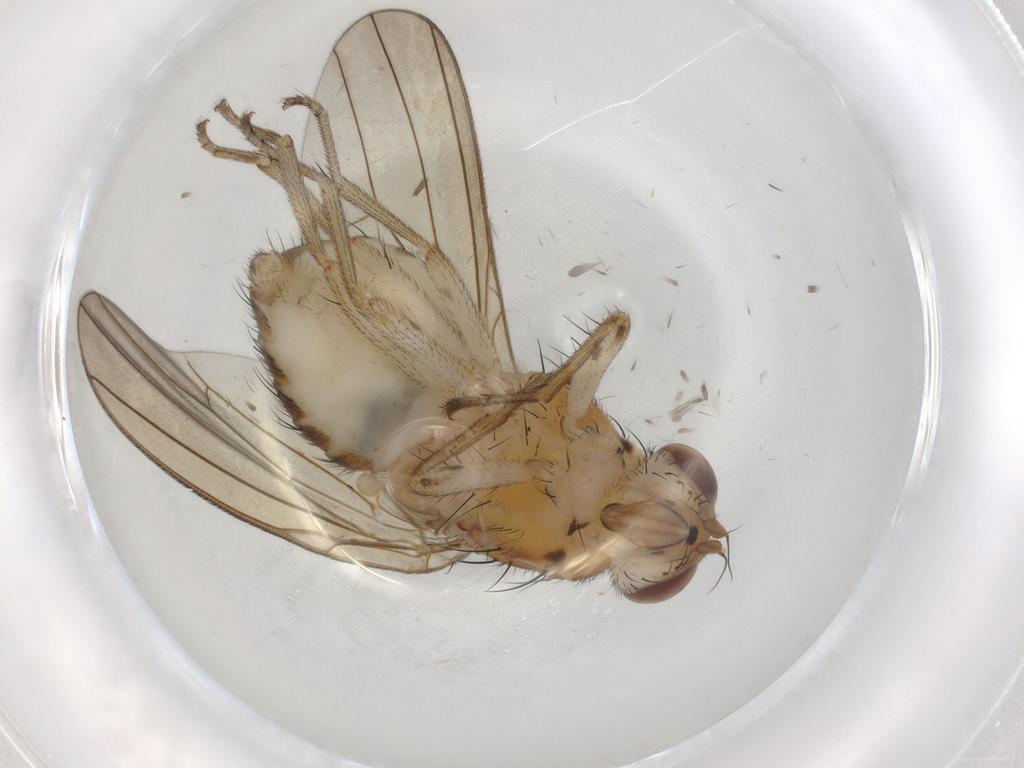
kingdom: Animalia
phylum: Arthropoda
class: Insecta
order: Diptera
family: Lauxaniidae
